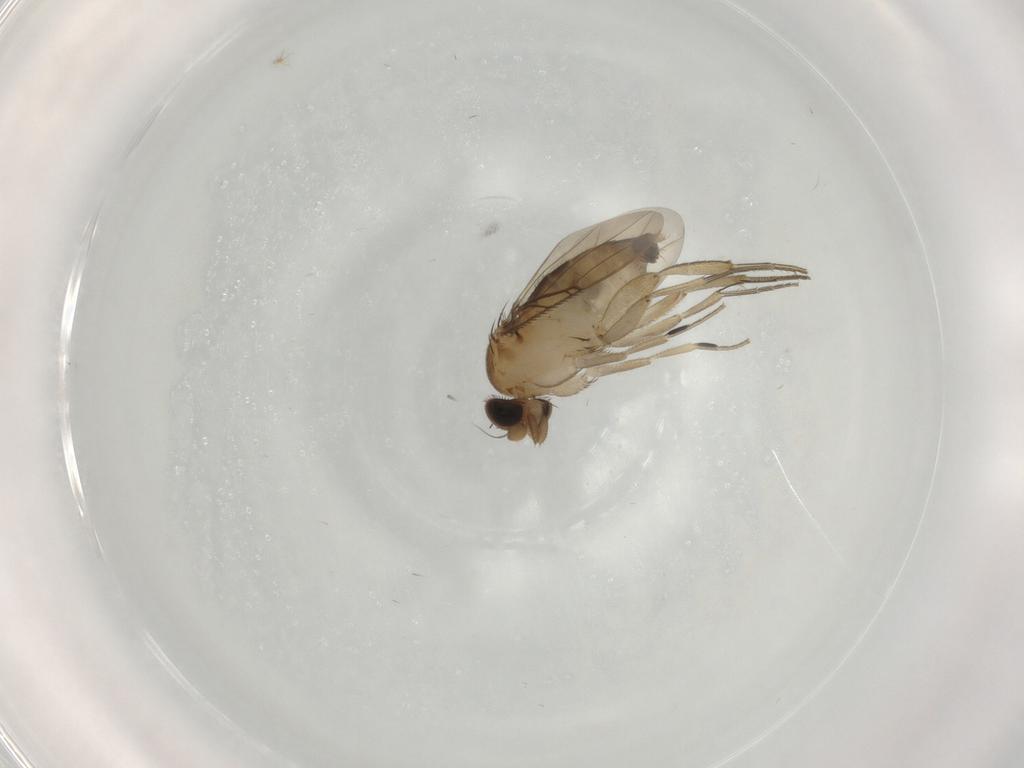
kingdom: Animalia
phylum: Arthropoda
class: Insecta
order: Diptera
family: Phoridae
